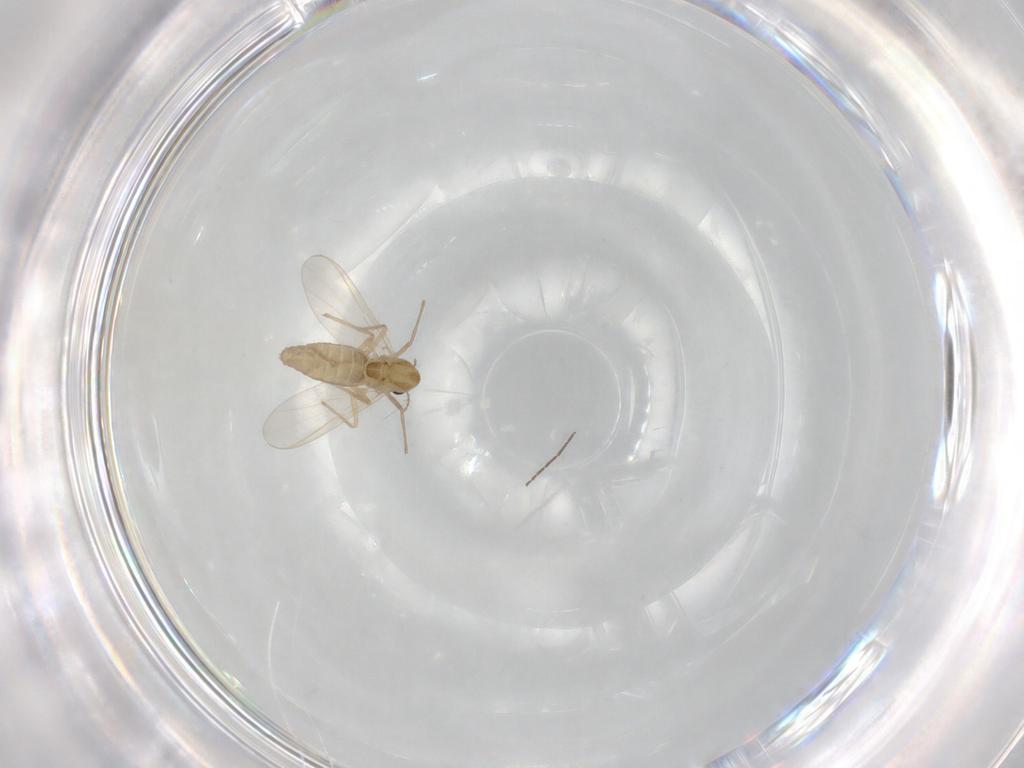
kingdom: Animalia
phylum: Arthropoda
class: Insecta
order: Diptera
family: Chironomidae
